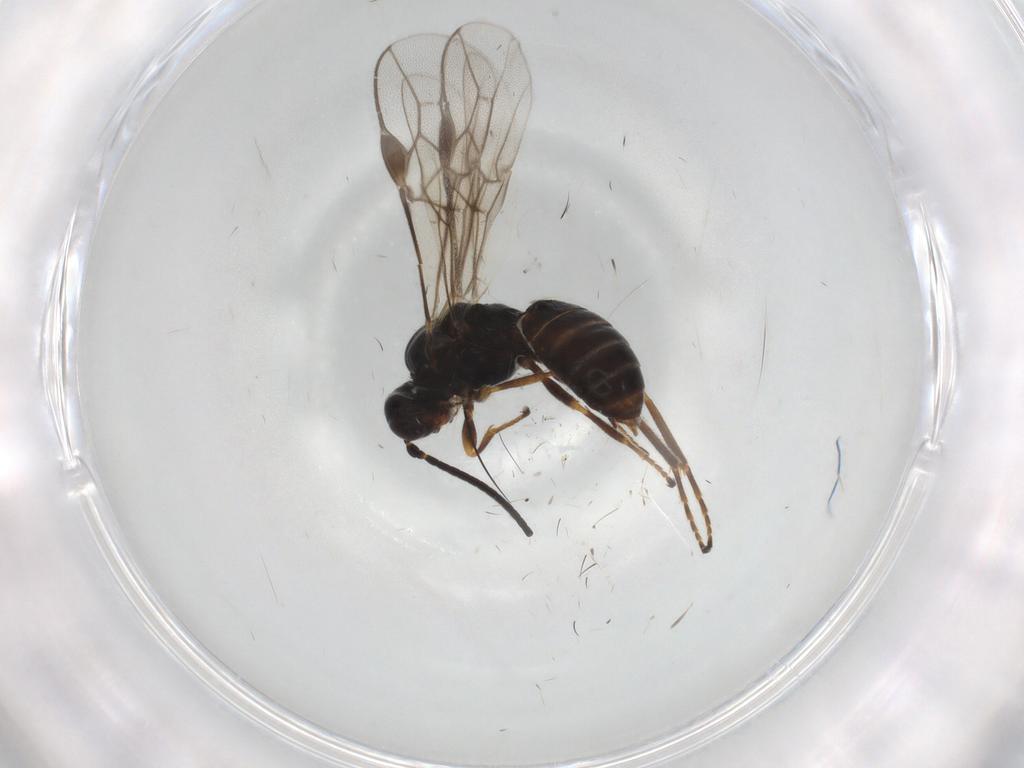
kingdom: Animalia
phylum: Arthropoda
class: Insecta
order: Hymenoptera
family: Braconidae
